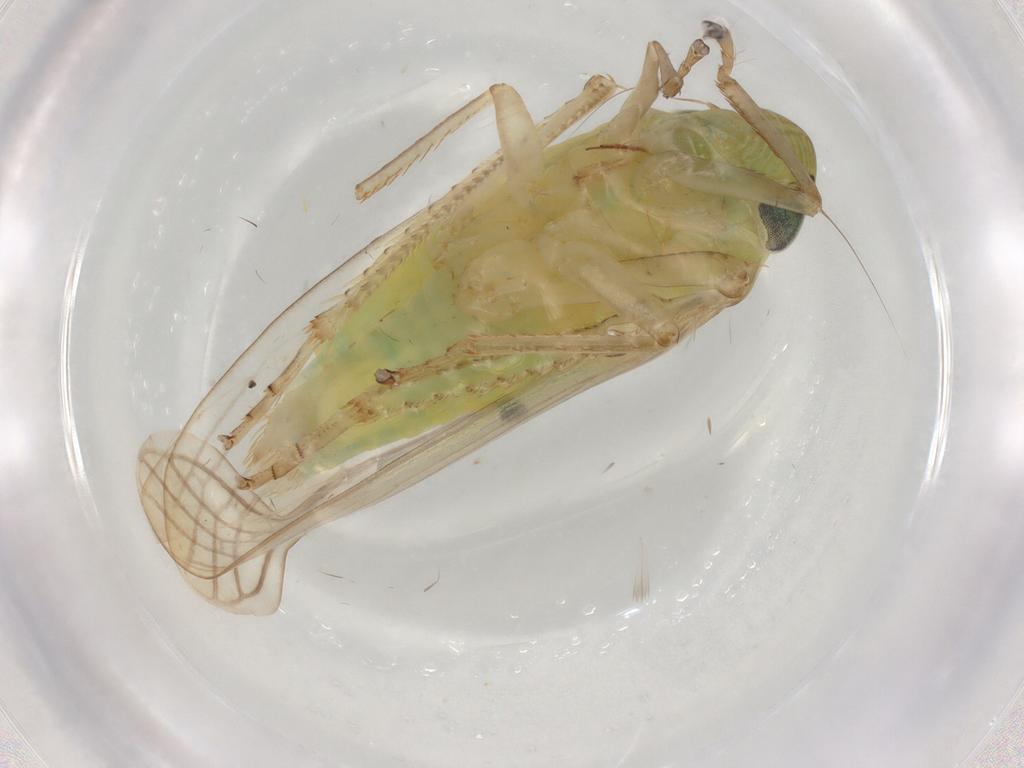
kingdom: Animalia
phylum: Arthropoda
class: Insecta
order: Hemiptera
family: Cicadellidae
